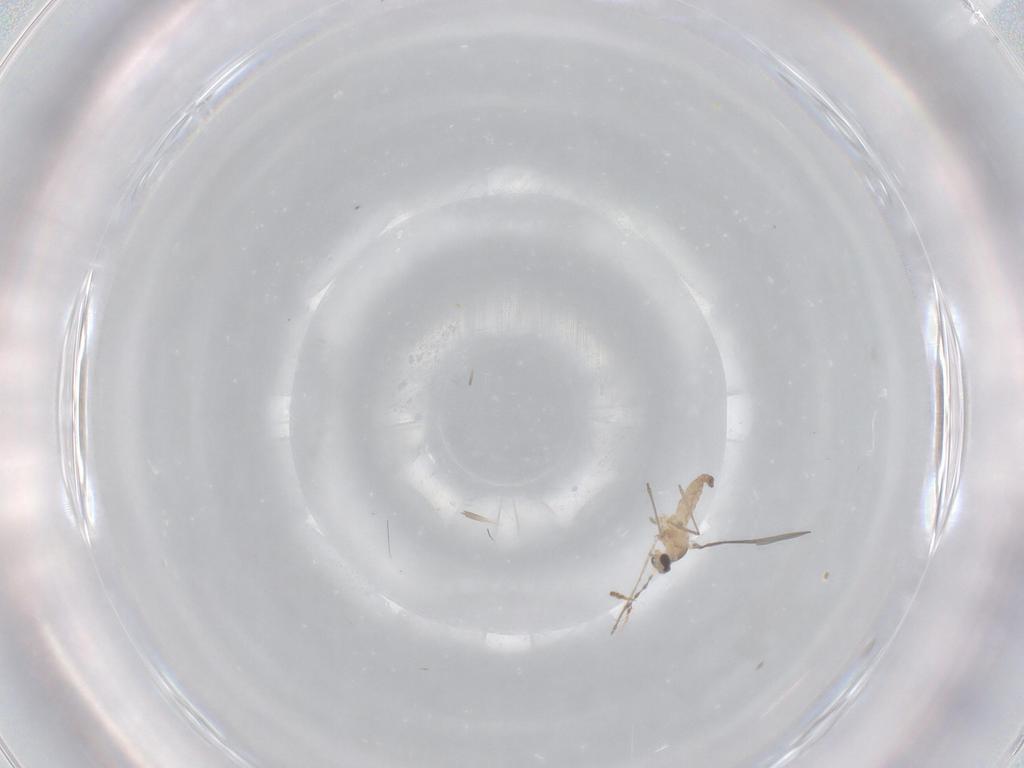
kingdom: Animalia
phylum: Arthropoda
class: Insecta
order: Diptera
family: Cecidomyiidae
